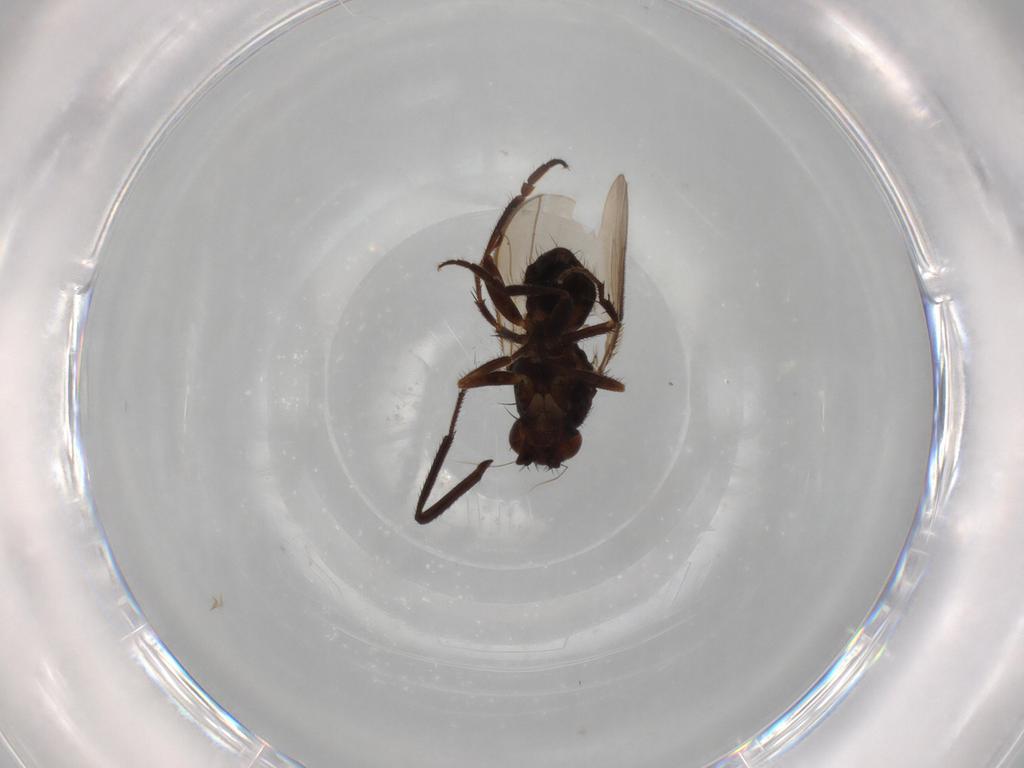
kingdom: Animalia
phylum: Arthropoda
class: Insecta
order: Diptera
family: Sphaeroceridae
